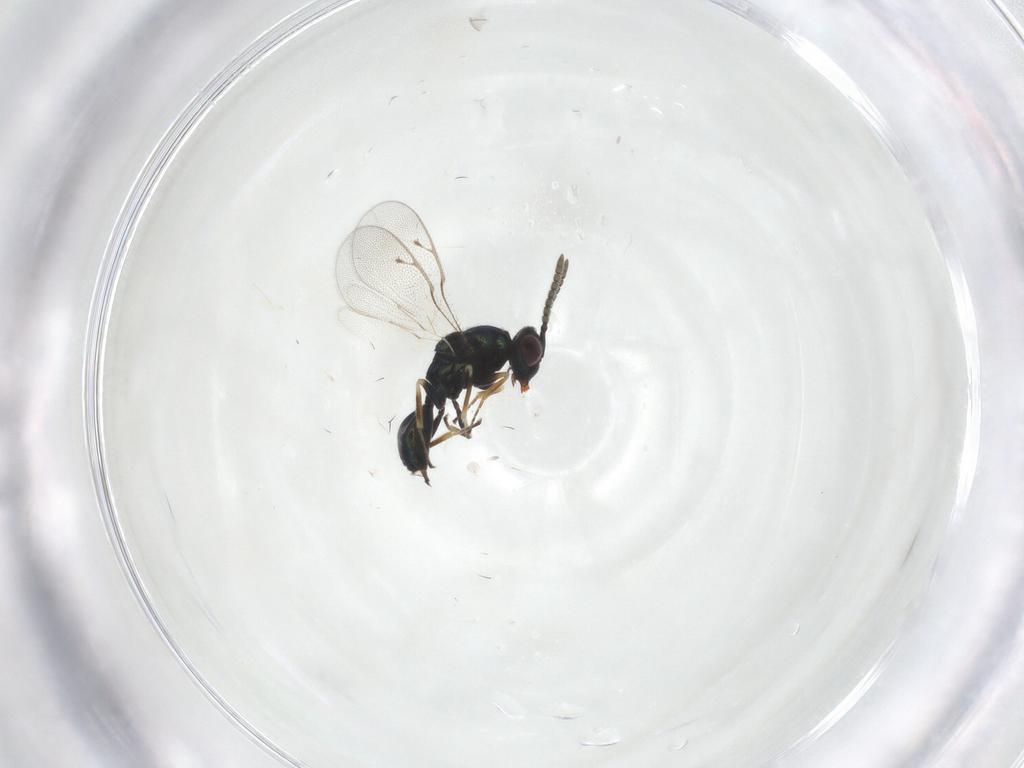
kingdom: Animalia
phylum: Arthropoda
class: Insecta
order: Hymenoptera
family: Pteromalidae
